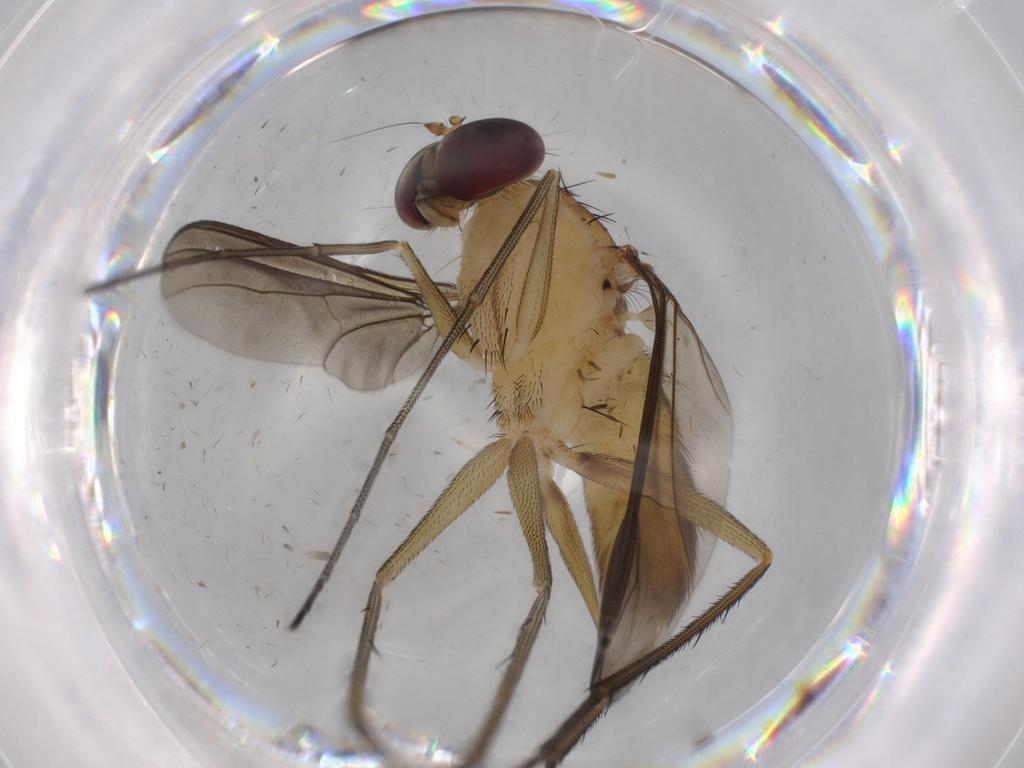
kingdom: Animalia
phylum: Arthropoda
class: Insecta
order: Diptera
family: Dolichopodidae
